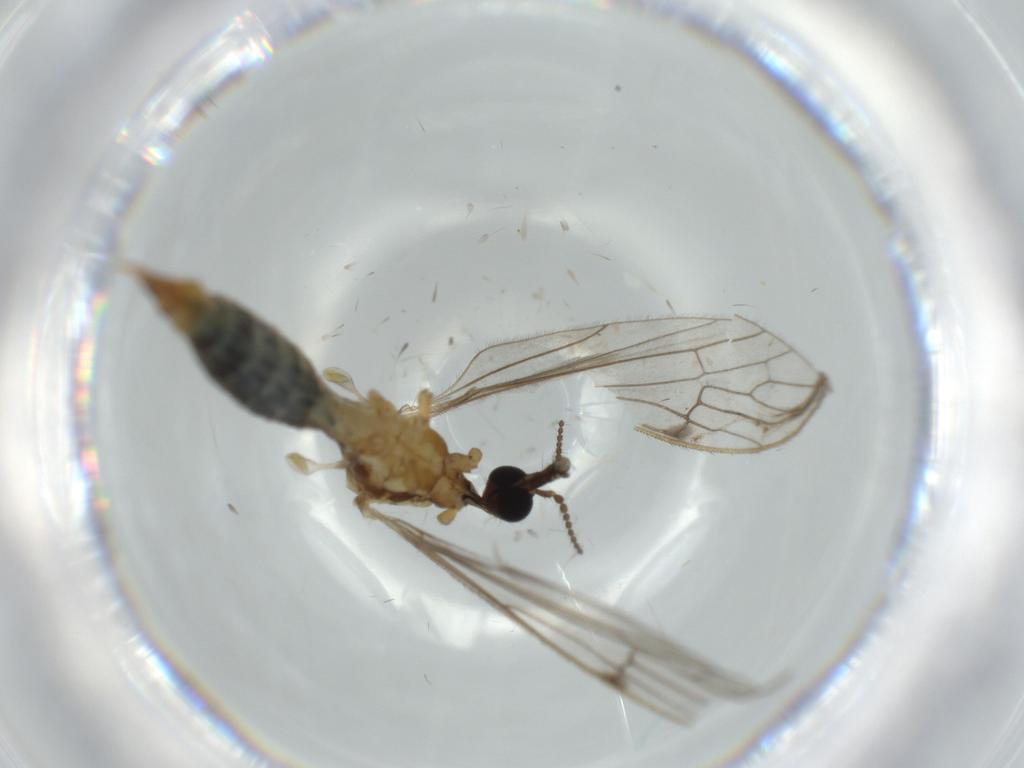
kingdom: Animalia
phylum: Arthropoda
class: Insecta
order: Diptera
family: Limoniidae
